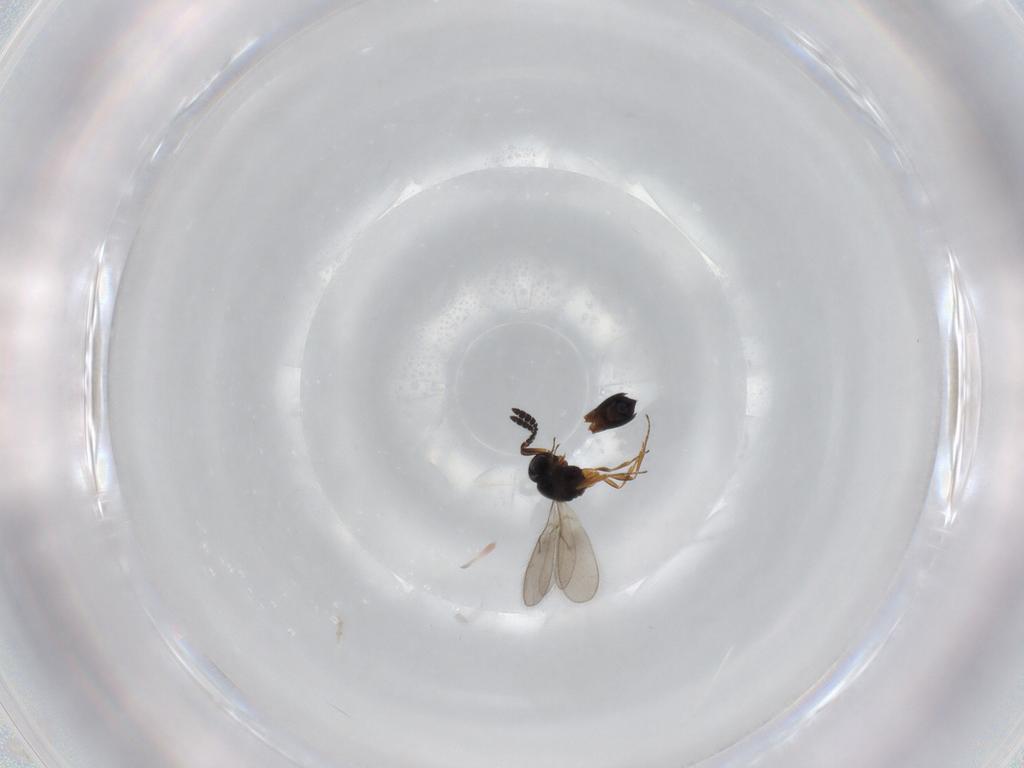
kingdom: Animalia
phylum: Arthropoda
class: Insecta
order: Hymenoptera
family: Scelionidae
